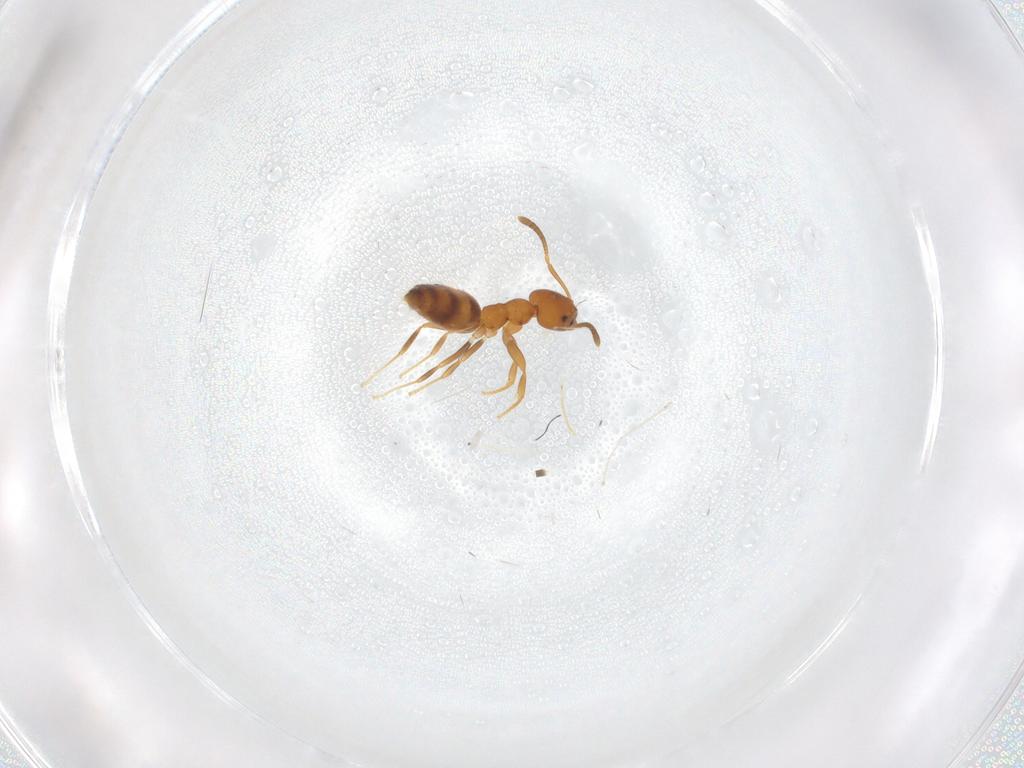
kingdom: Animalia
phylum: Arthropoda
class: Insecta
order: Hymenoptera
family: Formicidae
